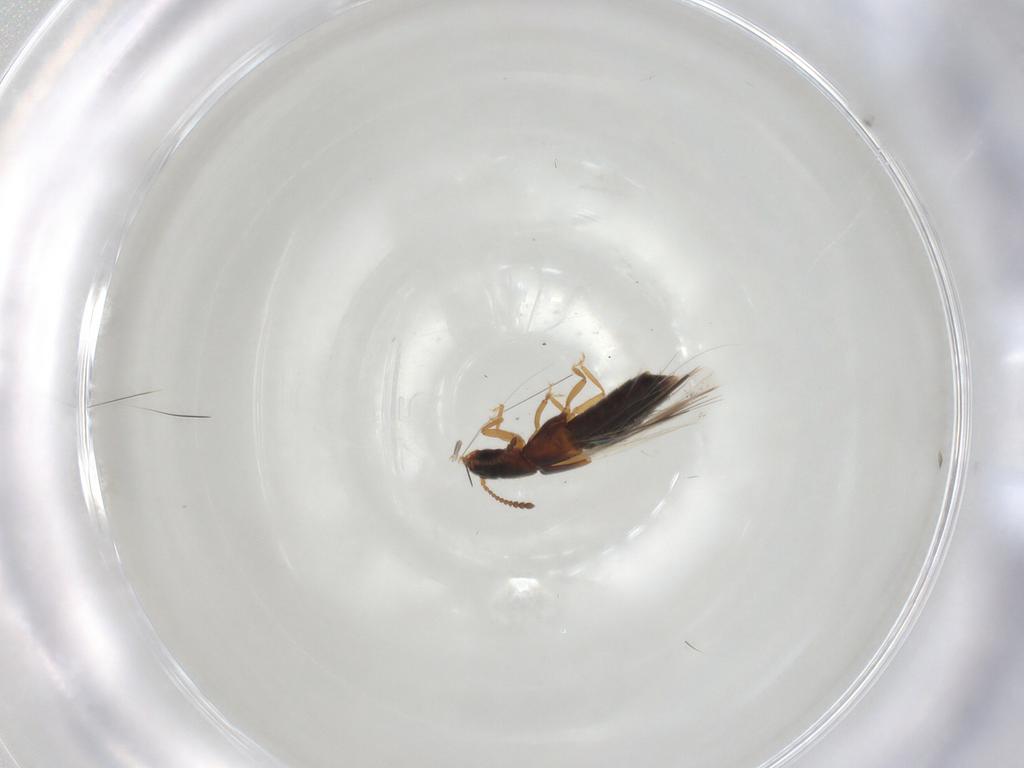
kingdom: Animalia
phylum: Arthropoda
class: Insecta
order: Coleoptera
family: Staphylinidae
